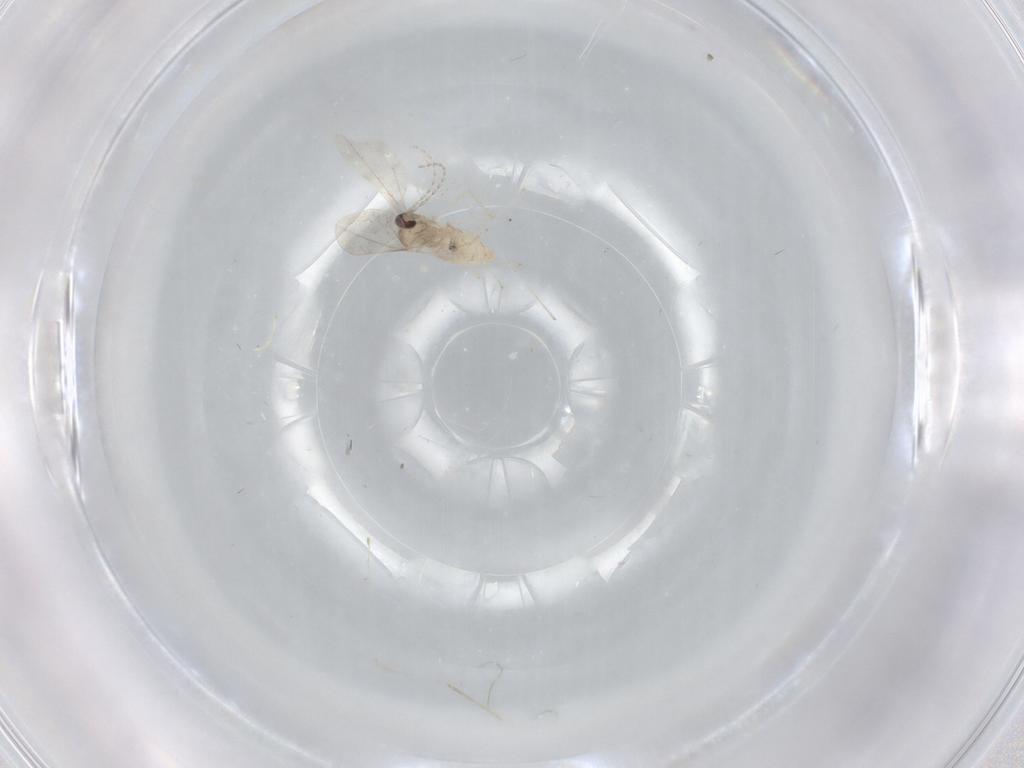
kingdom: Animalia
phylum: Arthropoda
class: Insecta
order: Diptera
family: Cecidomyiidae
